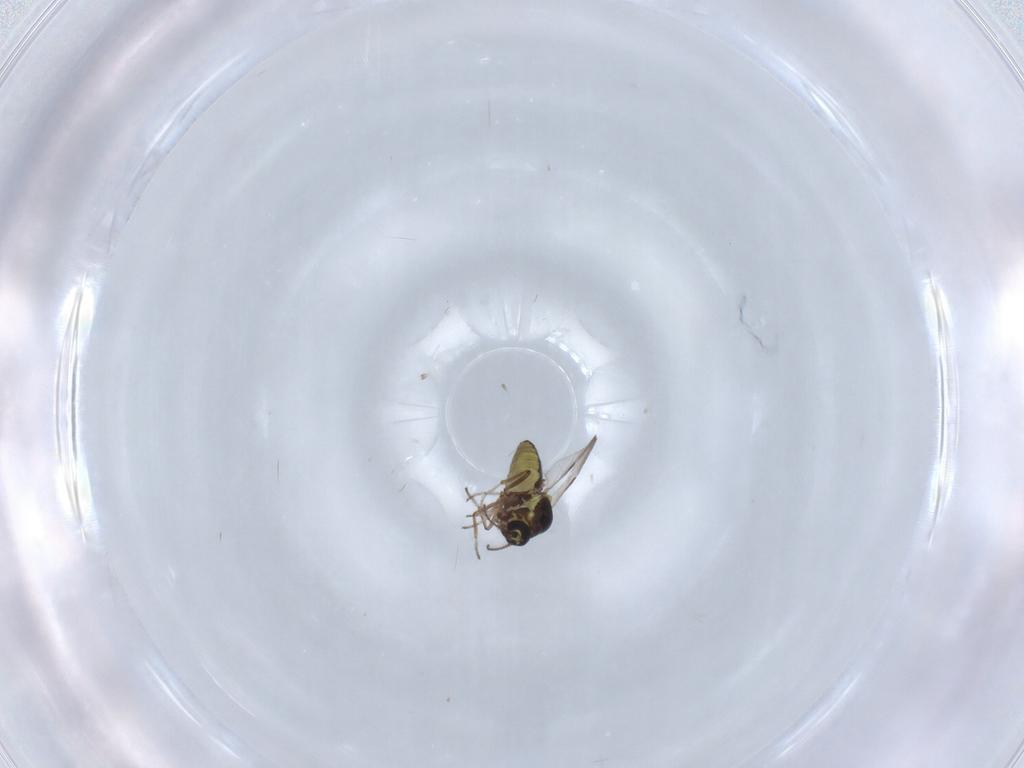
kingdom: Animalia
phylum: Arthropoda
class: Insecta
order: Diptera
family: Ceratopogonidae
